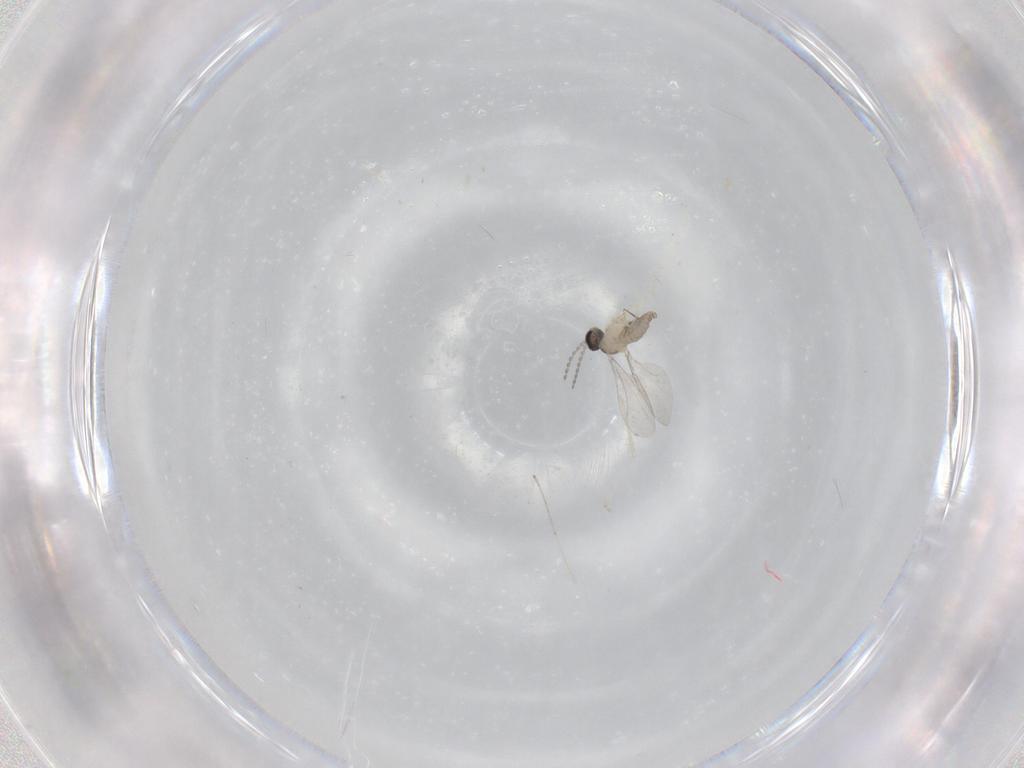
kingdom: Animalia
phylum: Arthropoda
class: Insecta
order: Diptera
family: Cecidomyiidae
